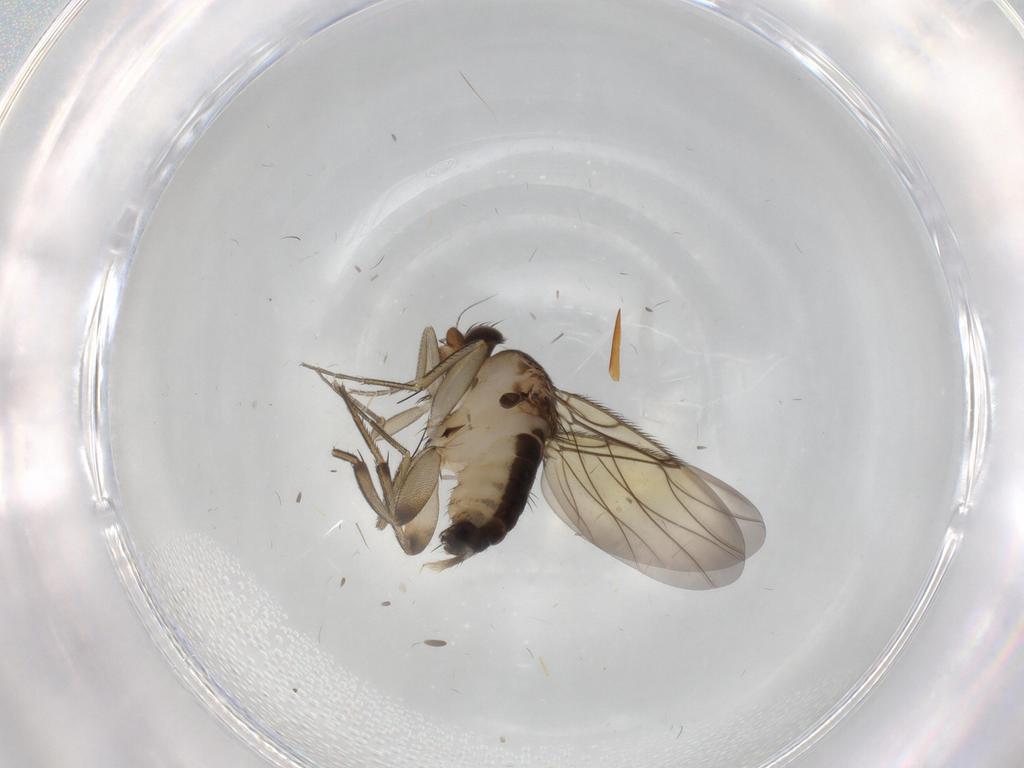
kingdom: Animalia
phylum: Arthropoda
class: Insecta
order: Diptera
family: Phoridae
